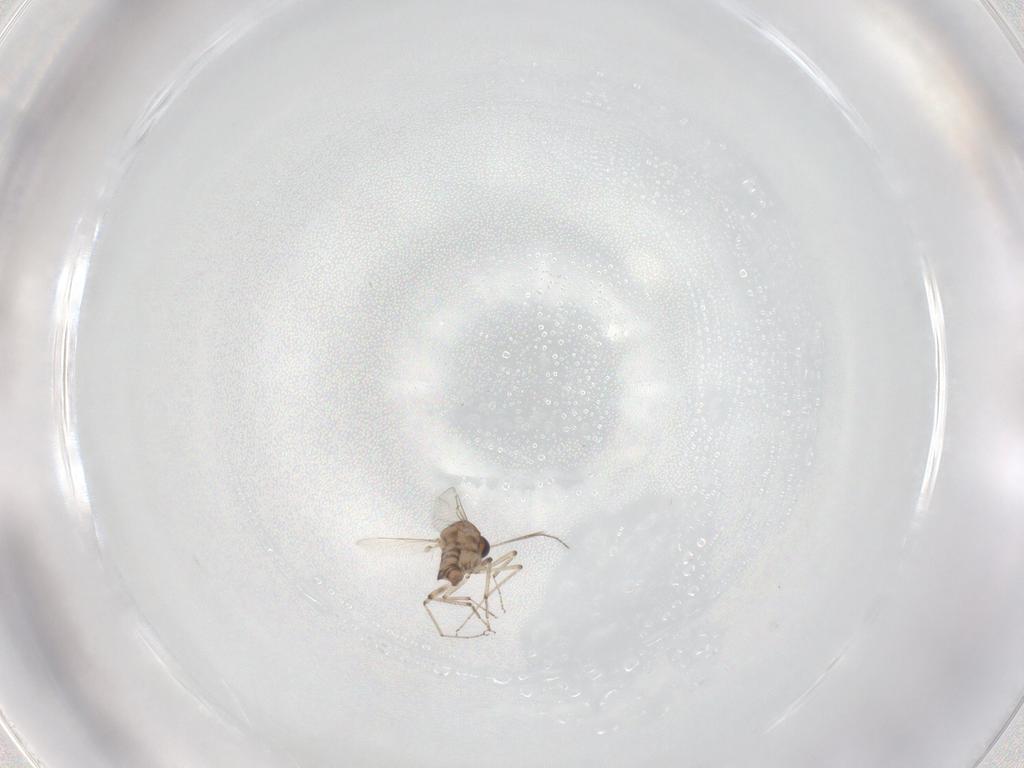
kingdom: Animalia
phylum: Arthropoda
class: Insecta
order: Diptera
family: Ceratopogonidae
